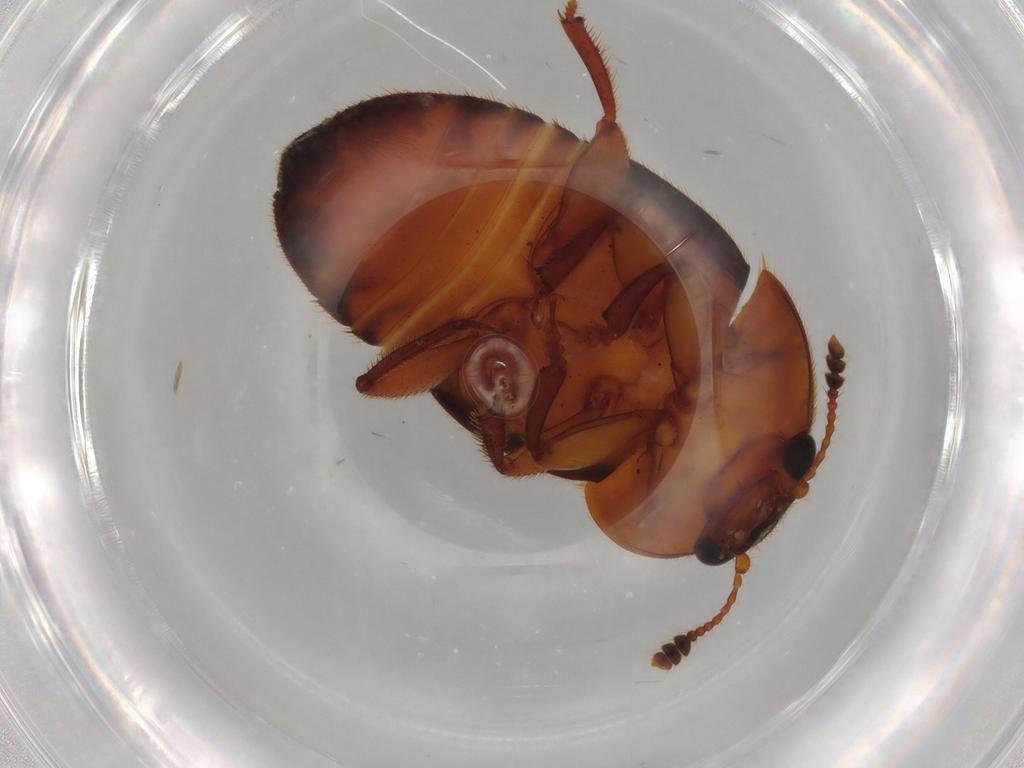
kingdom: Animalia
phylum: Arthropoda
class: Insecta
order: Coleoptera
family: Nitidulidae
